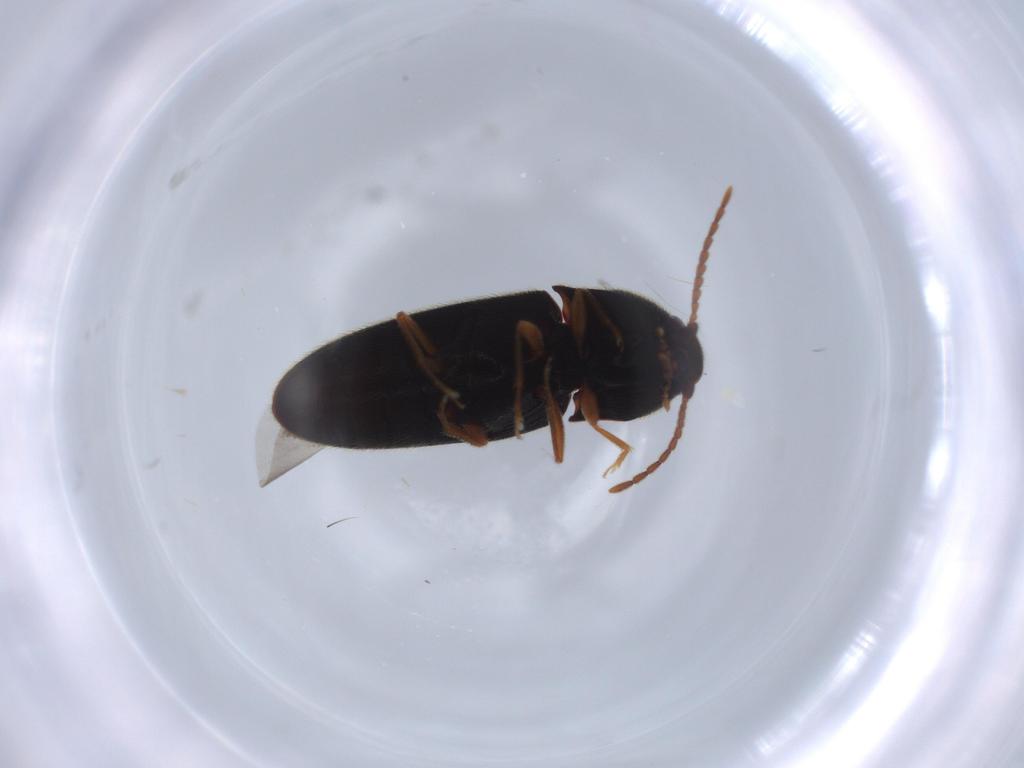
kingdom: Animalia
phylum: Arthropoda
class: Insecta
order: Coleoptera
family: Elateridae
